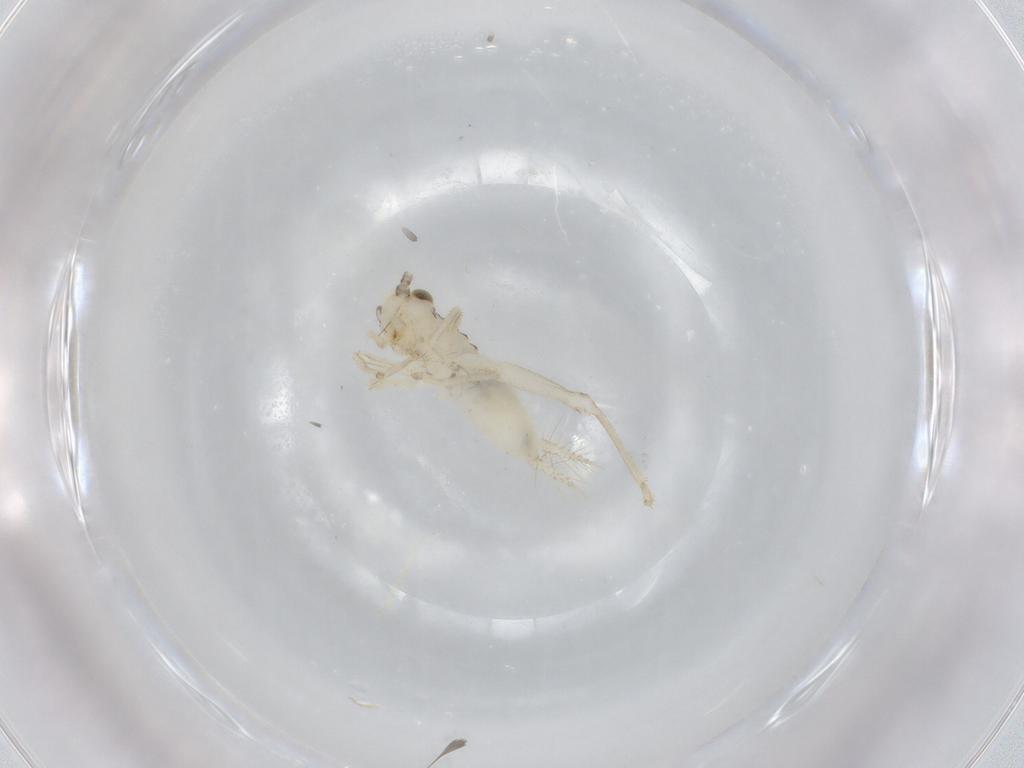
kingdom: Animalia
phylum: Arthropoda
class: Insecta
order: Orthoptera
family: Trigonidiidae
